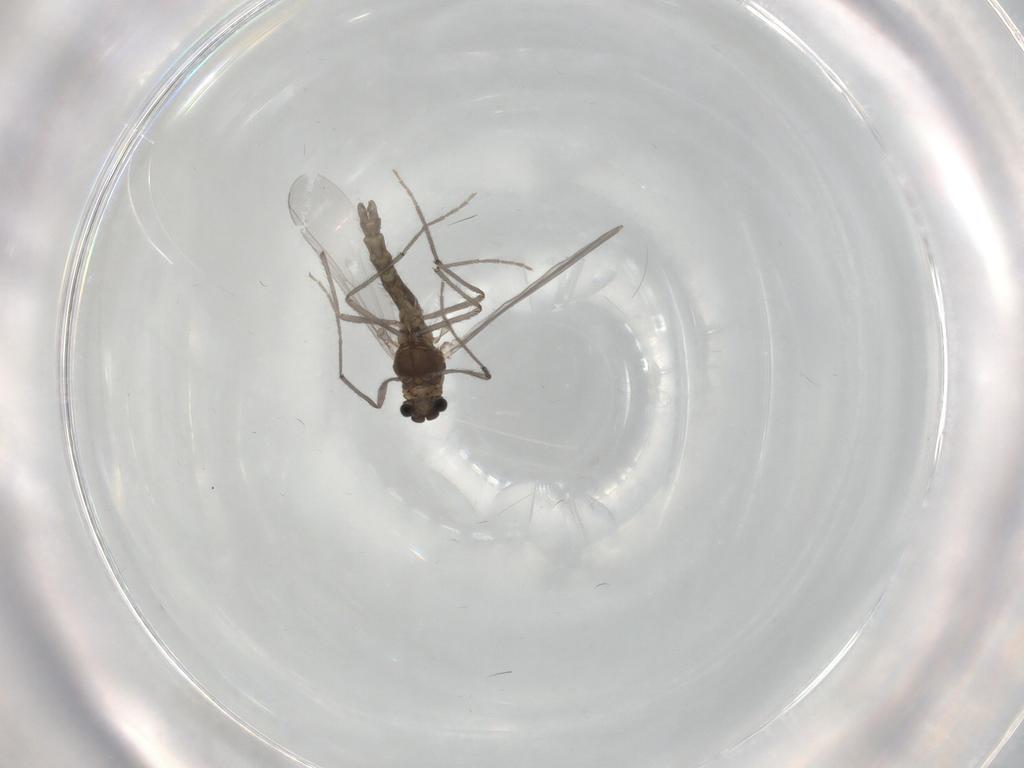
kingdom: Animalia
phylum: Arthropoda
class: Insecta
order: Diptera
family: Chironomidae
